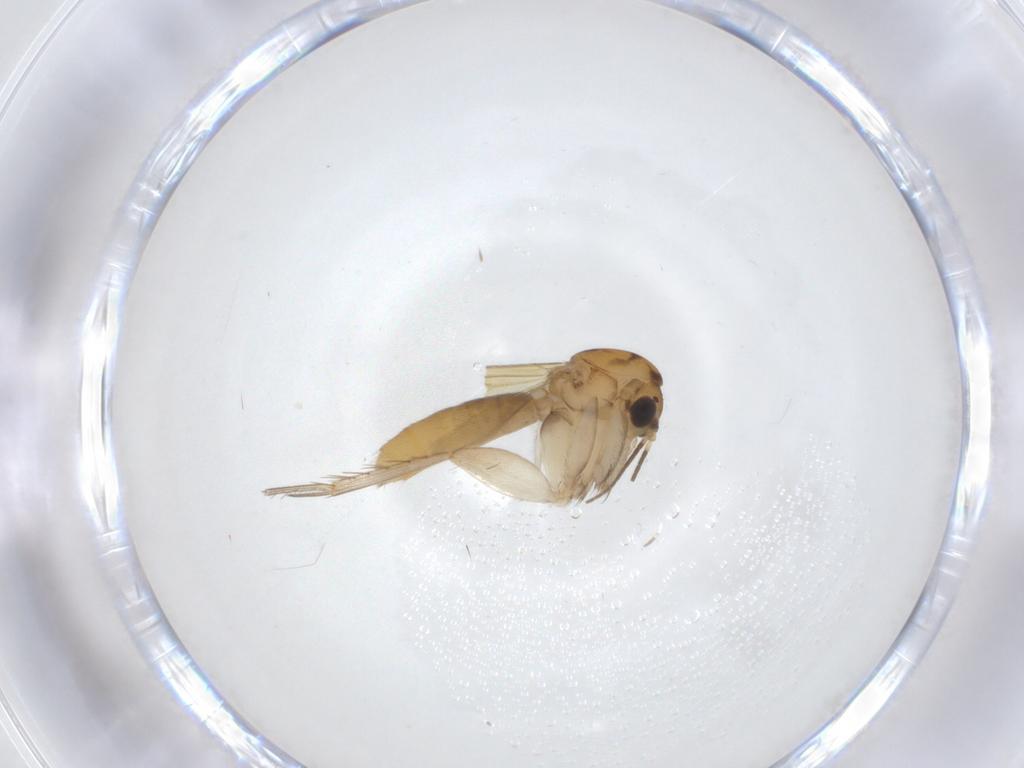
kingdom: Animalia
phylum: Arthropoda
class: Insecta
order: Diptera
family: Mycetophilidae
